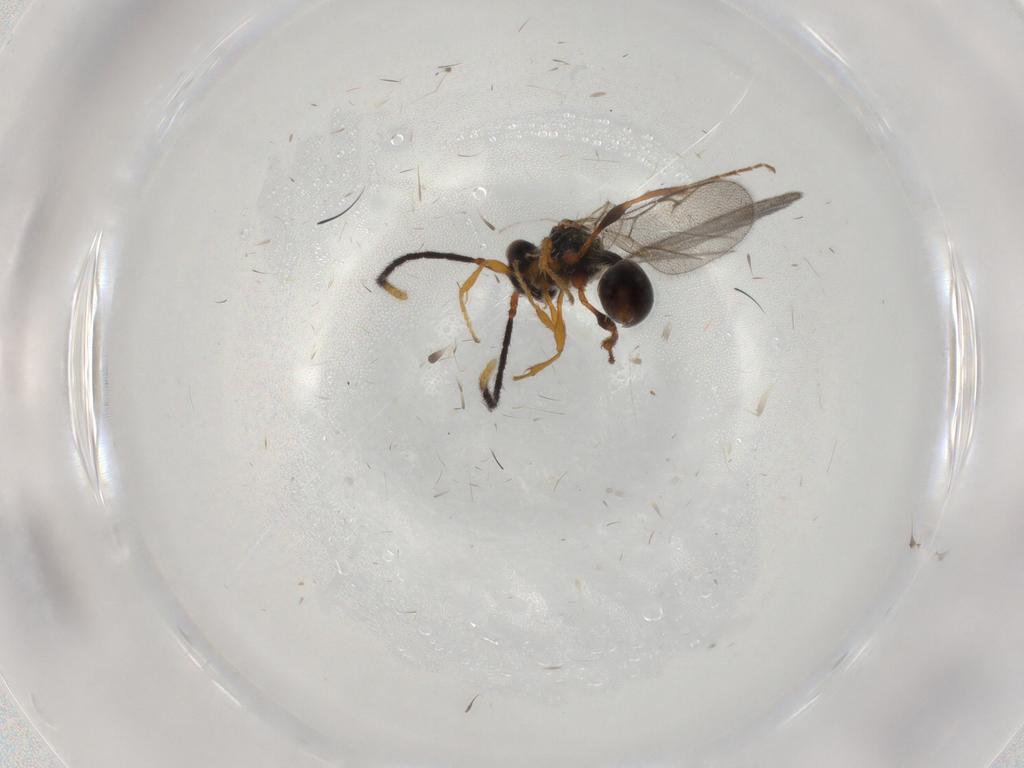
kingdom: Animalia
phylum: Arthropoda
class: Insecta
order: Hymenoptera
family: Diapriidae
